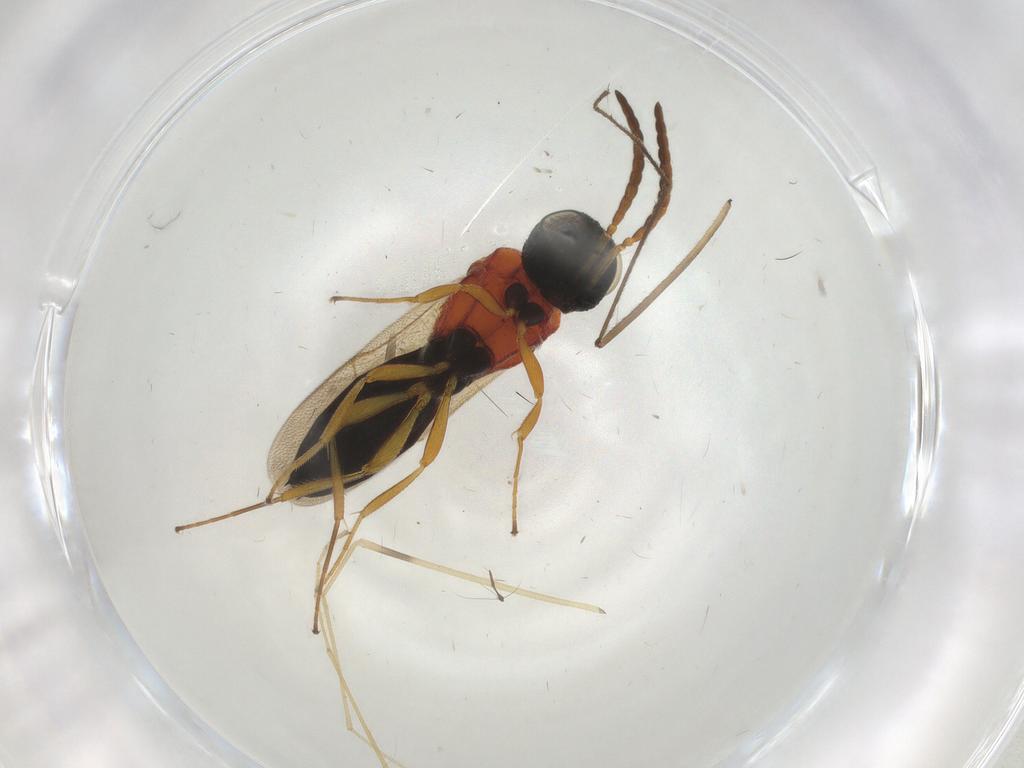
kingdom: Animalia
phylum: Arthropoda
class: Insecta
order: Hymenoptera
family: Scelionidae
